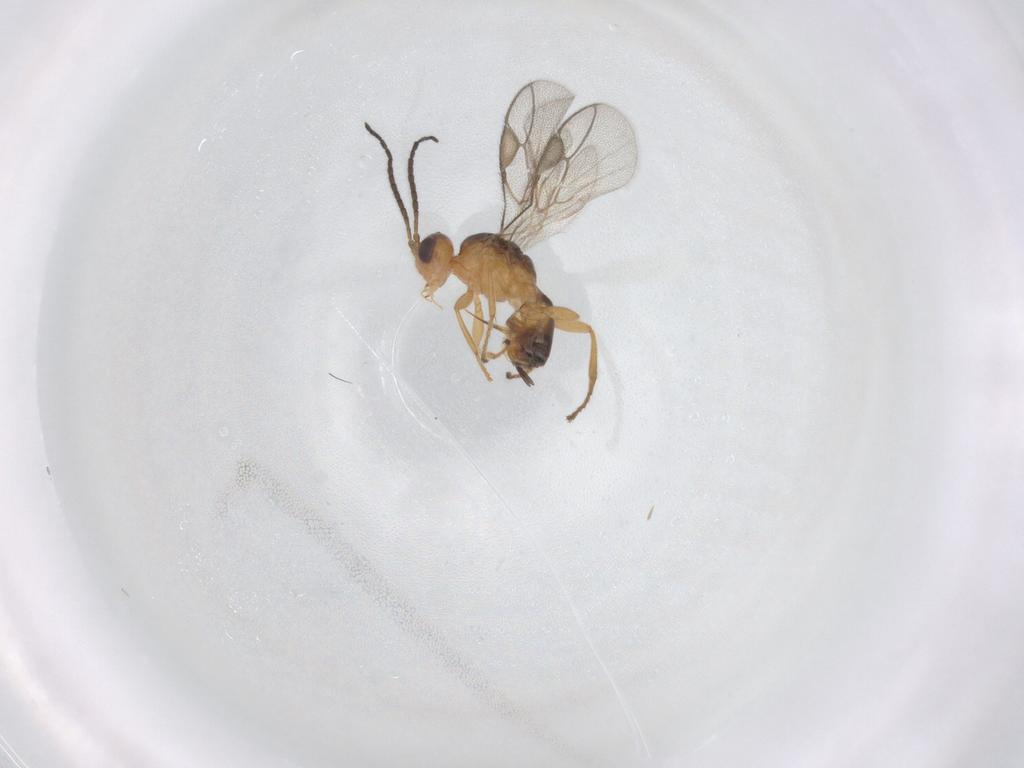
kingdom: Animalia
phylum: Arthropoda
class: Insecta
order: Hymenoptera
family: Braconidae
